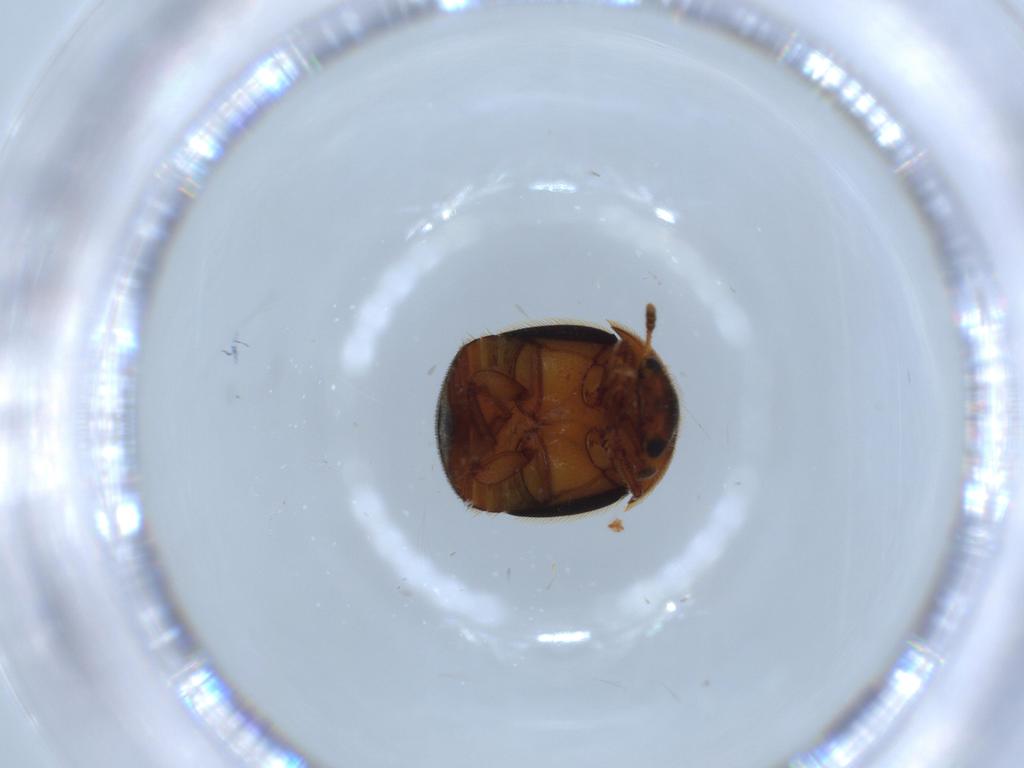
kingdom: Animalia
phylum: Arthropoda
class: Insecta
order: Coleoptera
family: Nitidulidae
